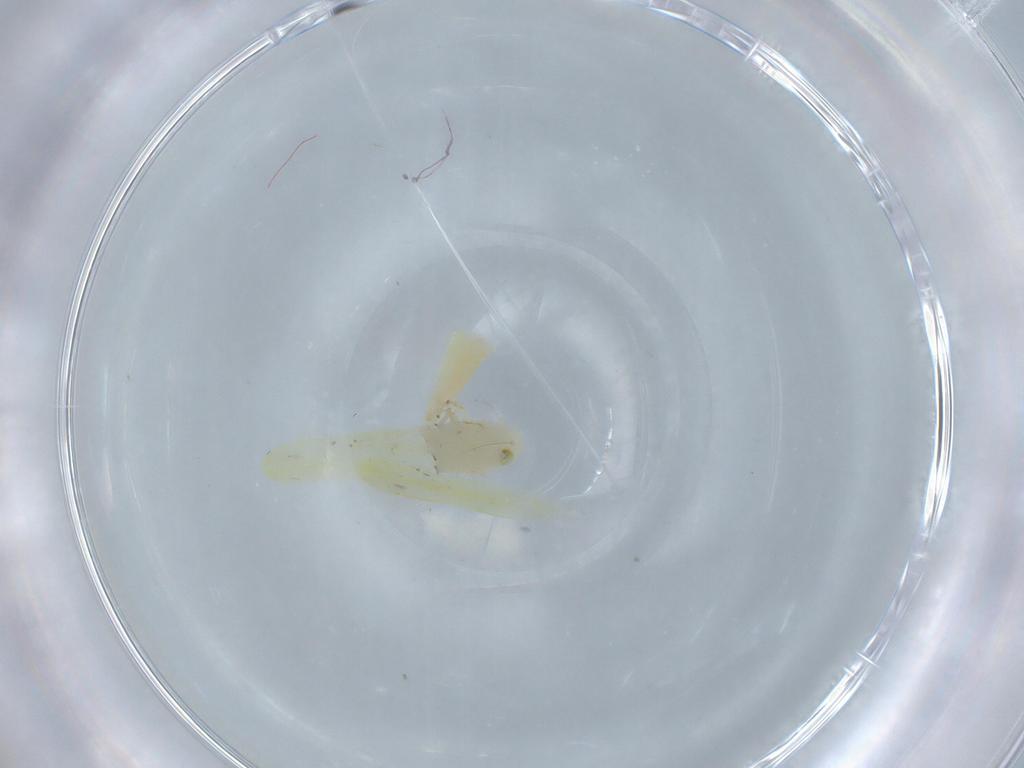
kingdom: Animalia
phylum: Arthropoda
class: Insecta
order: Hemiptera
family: Cicadellidae
